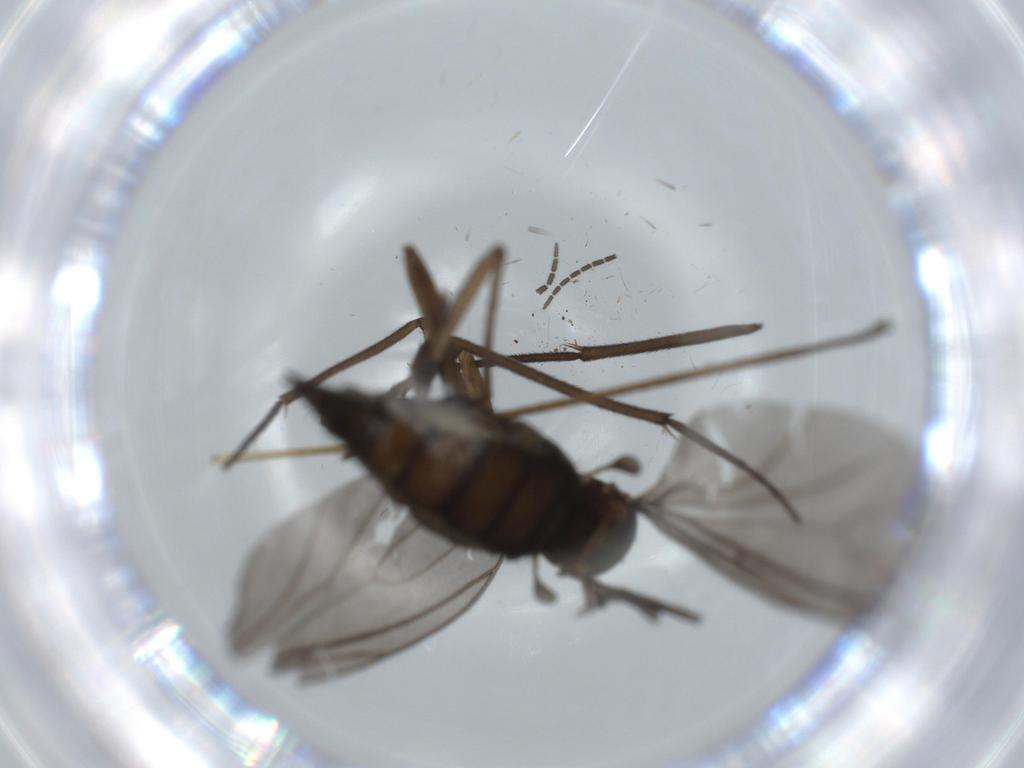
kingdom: Animalia
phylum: Arthropoda
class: Insecta
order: Diptera
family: Sciaridae
